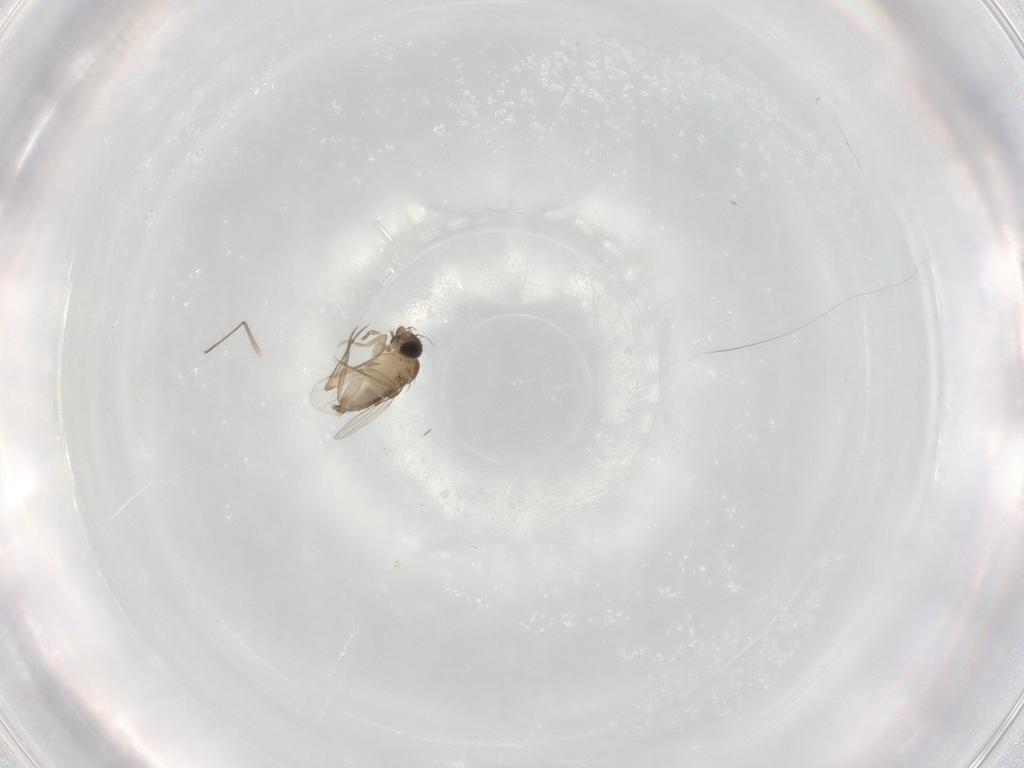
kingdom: Animalia
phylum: Arthropoda
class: Insecta
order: Diptera
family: Phoridae
